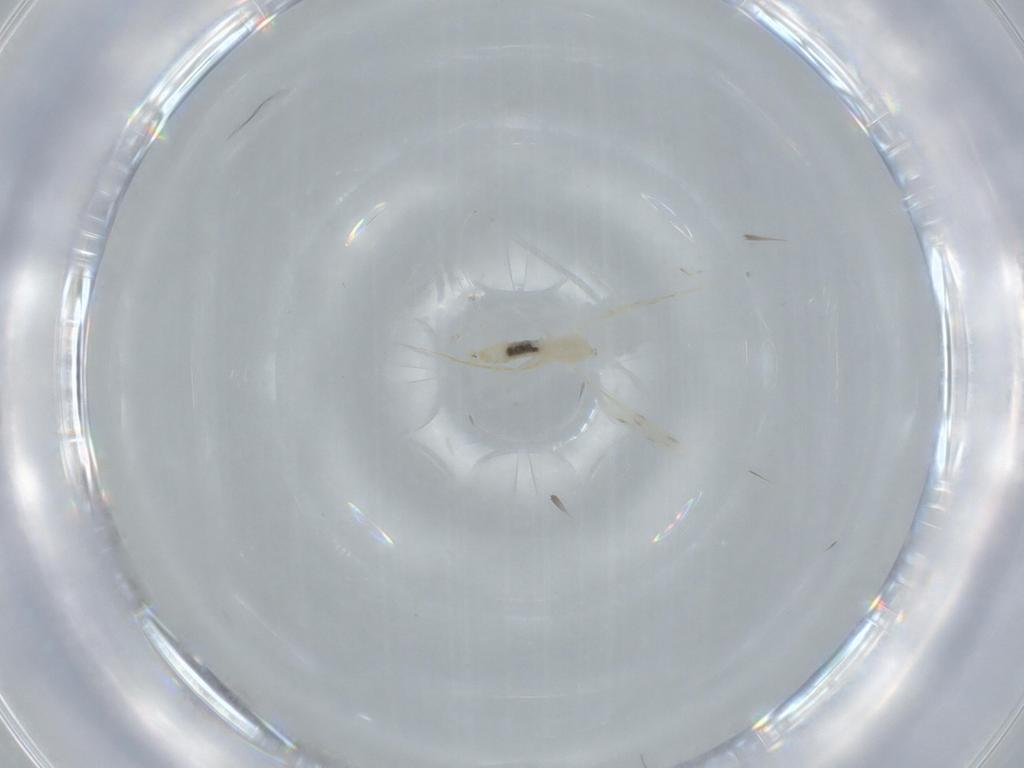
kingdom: Animalia
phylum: Arthropoda
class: Insecta
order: Diptera
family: Cecidomyiidae
